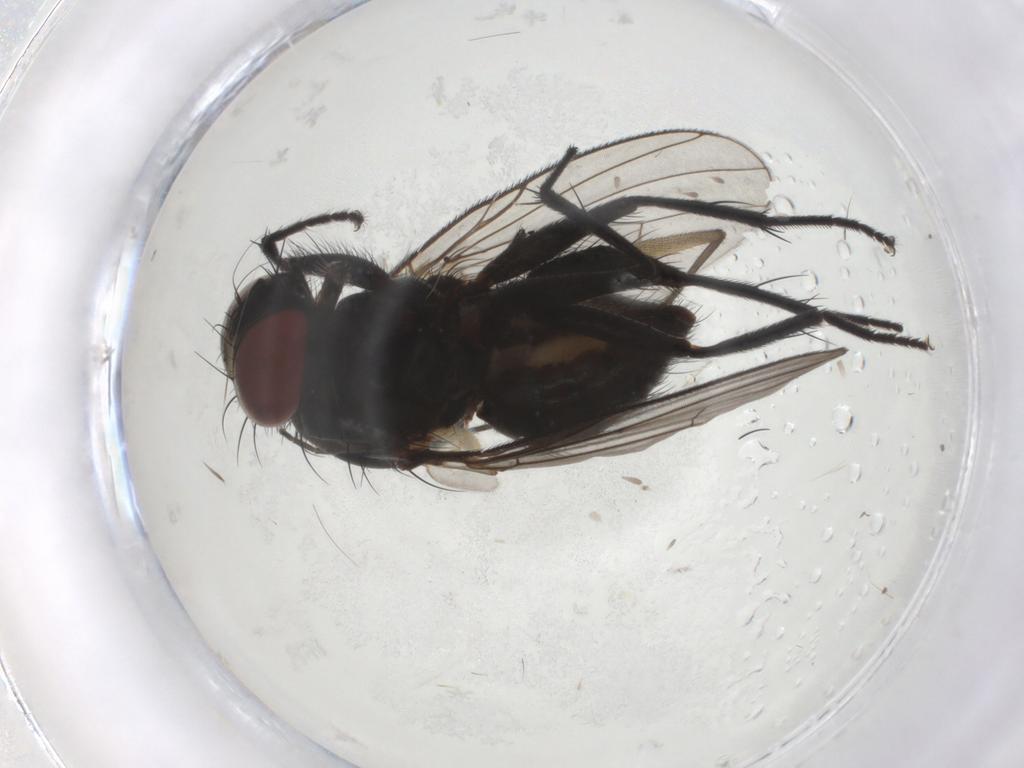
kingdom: Animalia
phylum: Arthropoda
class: Insecta
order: Diptera
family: Muscidae
